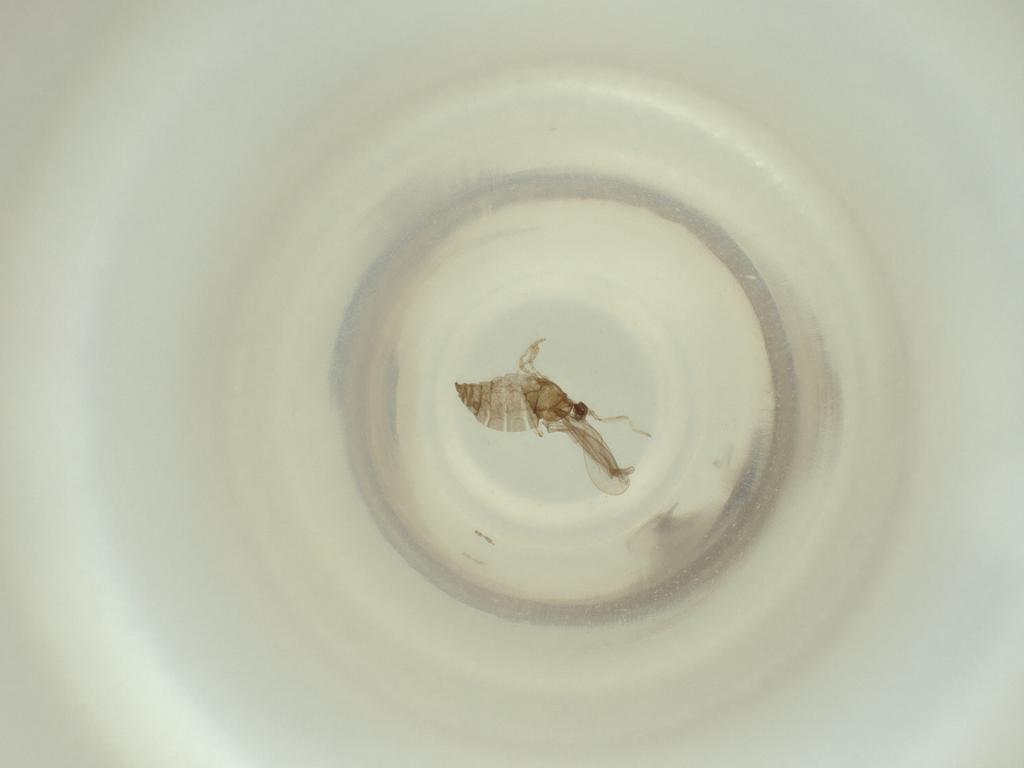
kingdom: Animalia
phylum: Arthropoda
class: Insecta
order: Diptera
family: Cecidomyiidae
